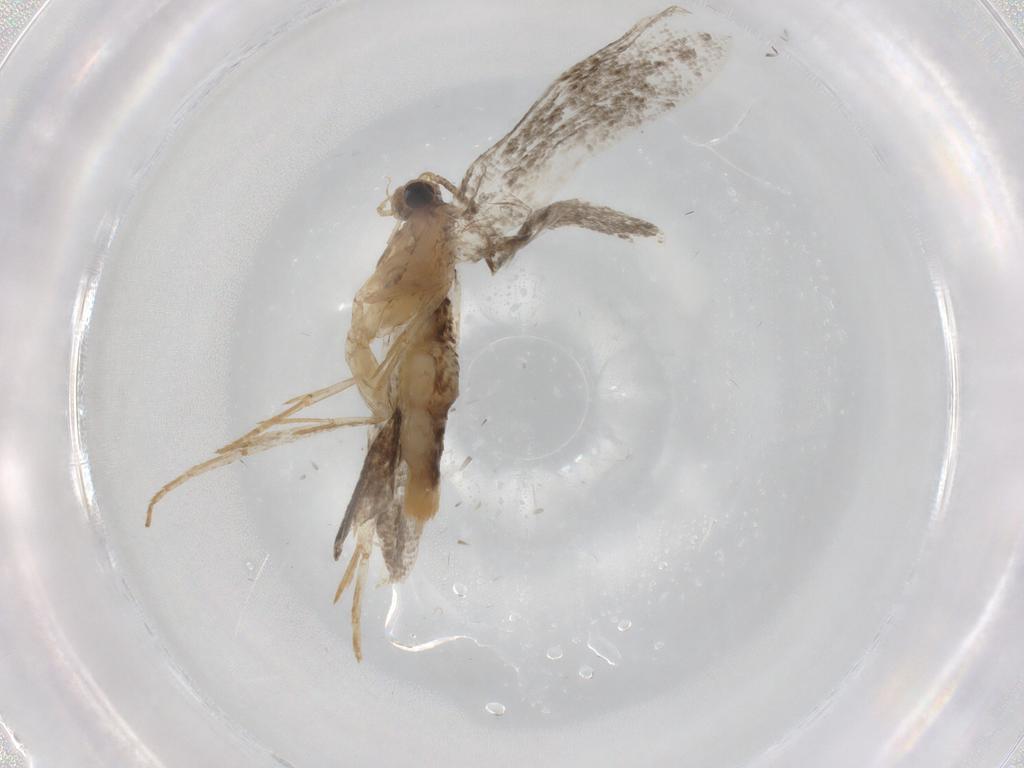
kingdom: Animalia
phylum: Arthropoda
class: Insecta
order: Lepidoptera
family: Tineidae
